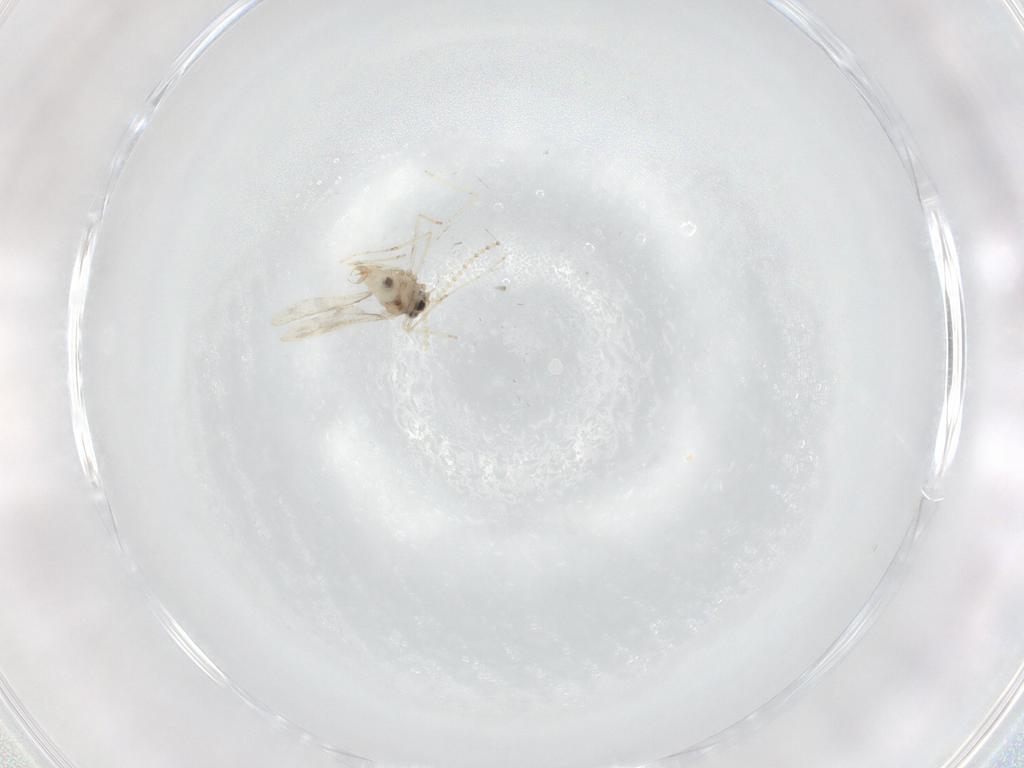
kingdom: Animalia
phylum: Arthropoda
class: Insecta
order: Diptera
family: Cecidomyiidae
